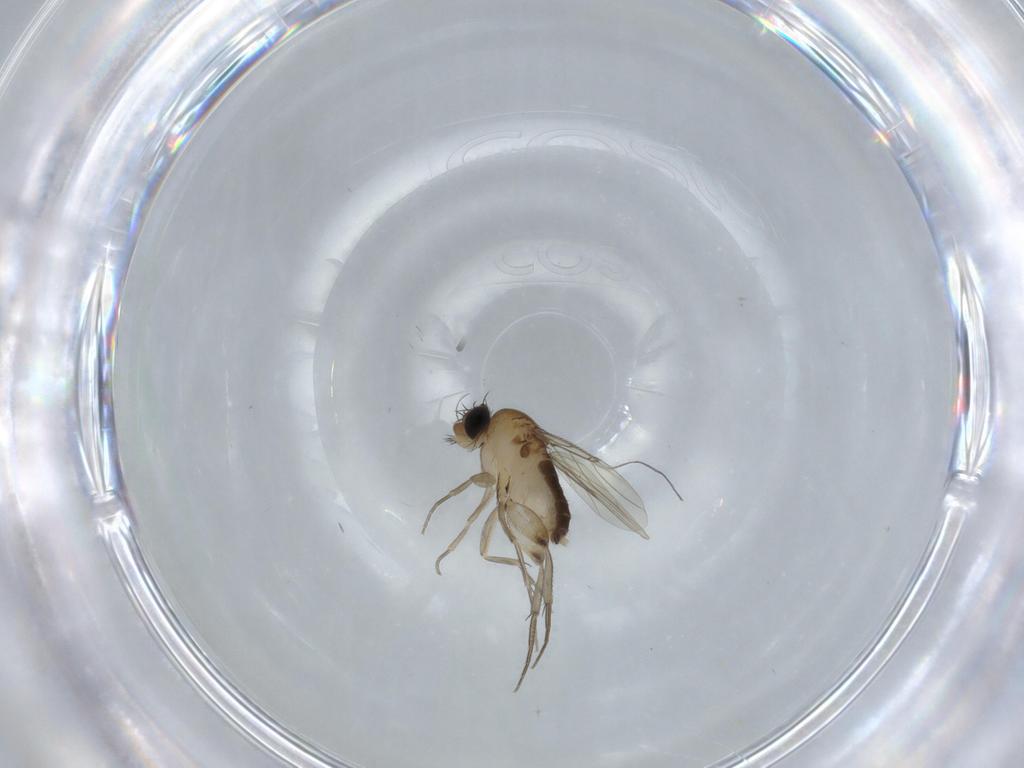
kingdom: Animalia
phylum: Arthropoda
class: Insecta
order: Diptera
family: Phoridae
